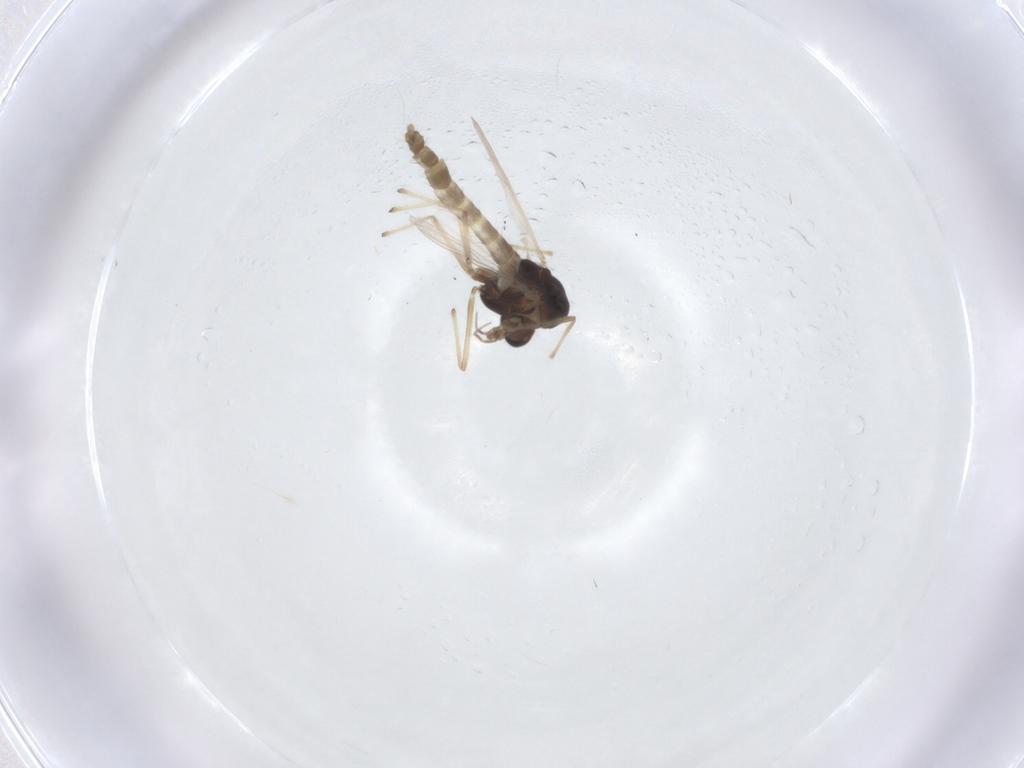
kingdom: Animalia
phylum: Arthropoda
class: Insecta
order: Diptera
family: Chironomidae
